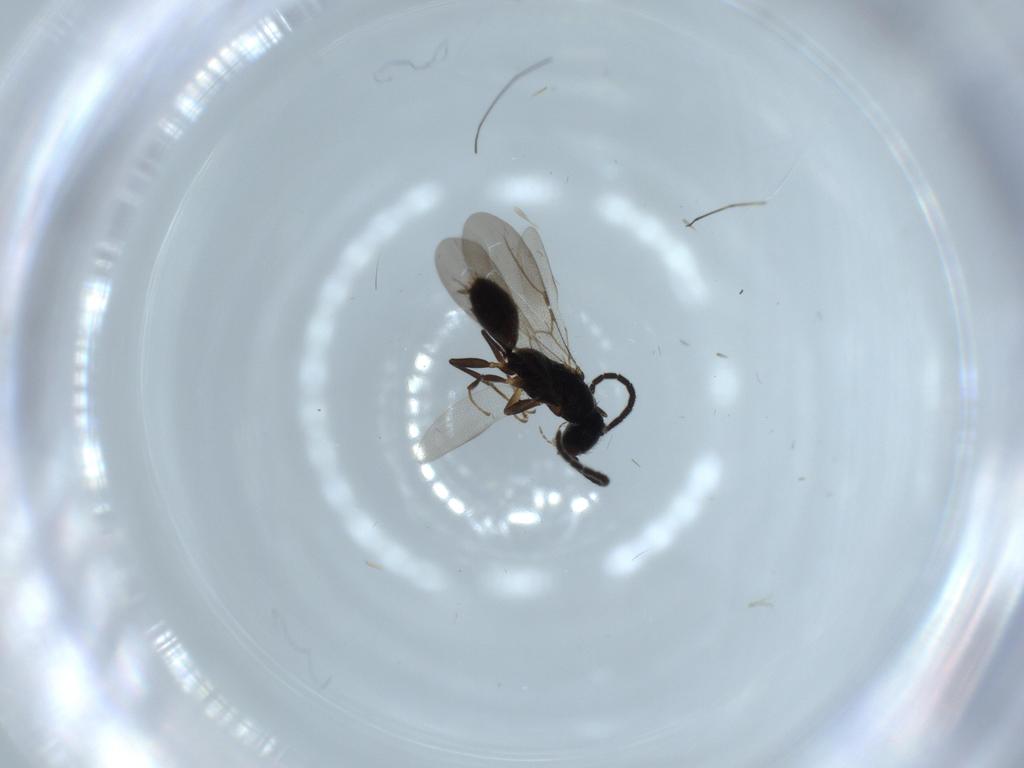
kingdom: Animalia
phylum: Arthropoda
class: Insecta
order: Hymenoptera
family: Bethylidae
